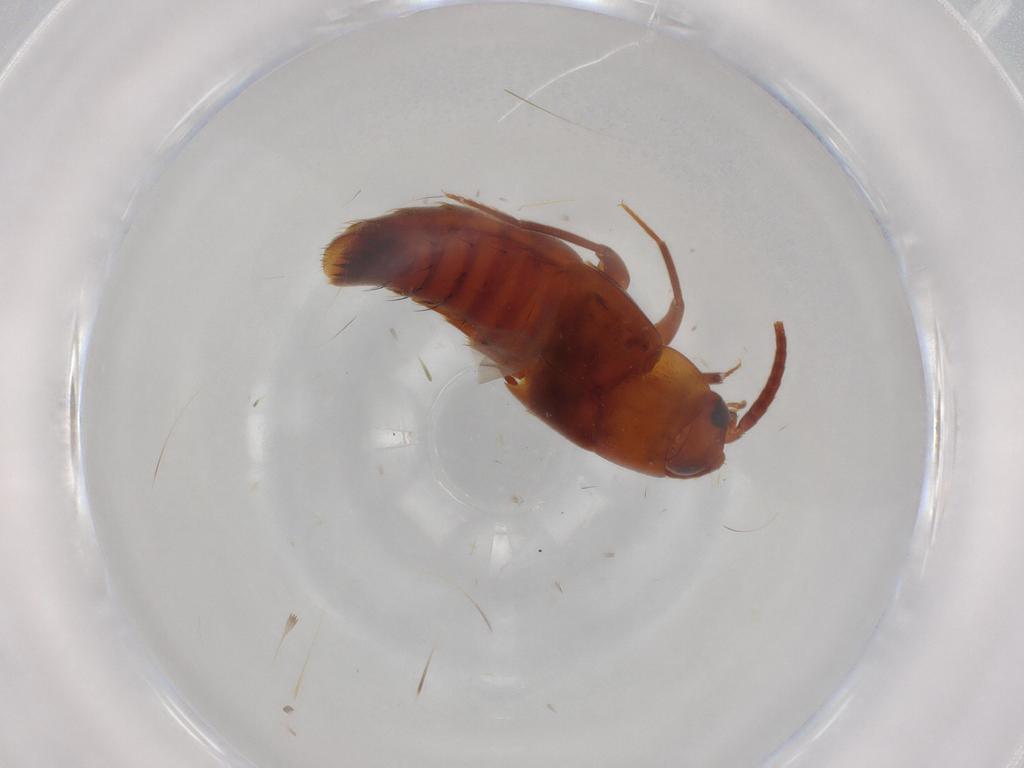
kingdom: Animalia
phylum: Arthropoda
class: Insecta
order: Coleoptera
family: Staphylinidae
